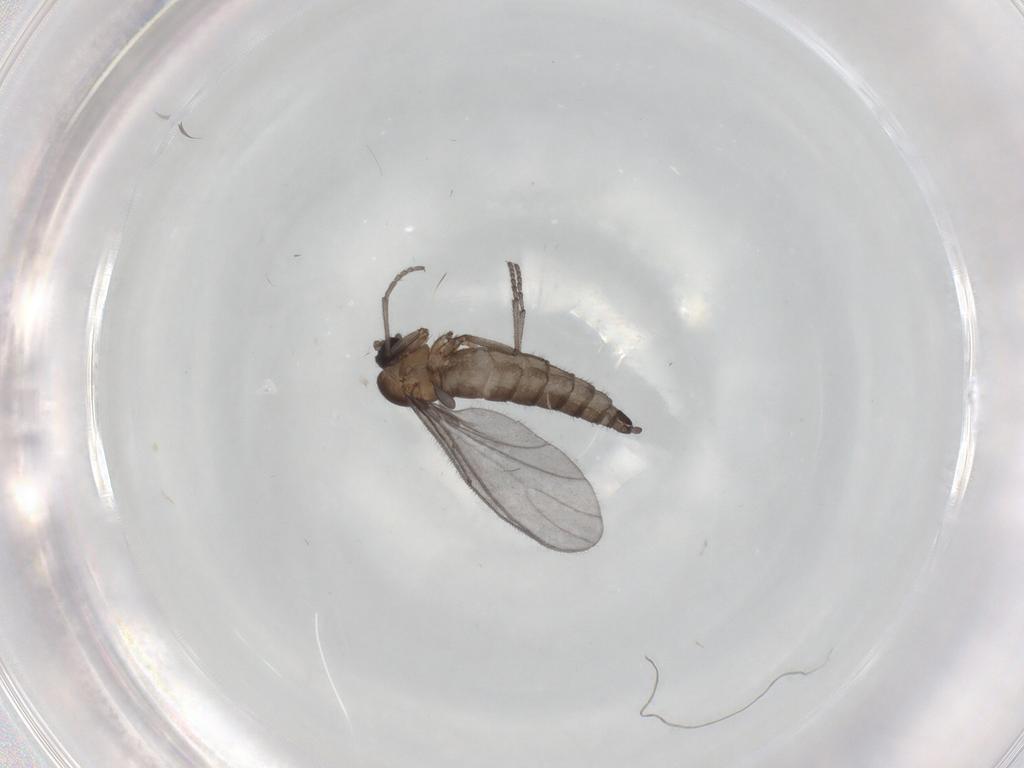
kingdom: Animalia
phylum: Arthropoda
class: Insecta
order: Diptera
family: Sciaridae
